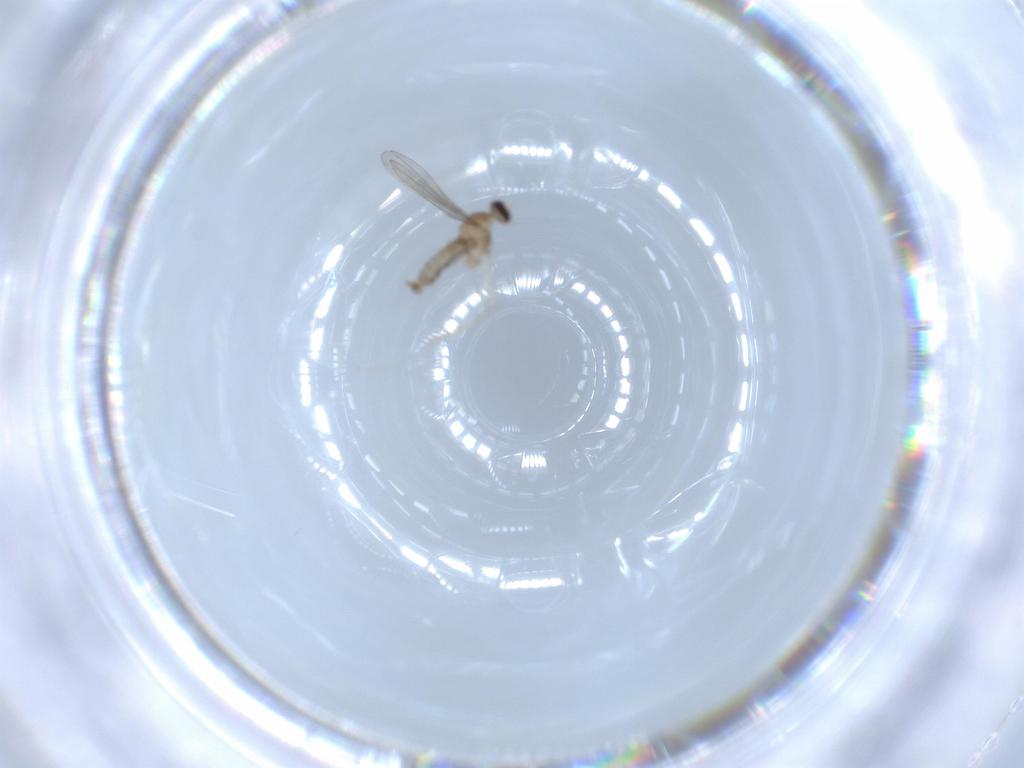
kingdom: Animalia
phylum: Arthropoda
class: Insecta
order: Diptera
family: Cecidomyiidae
